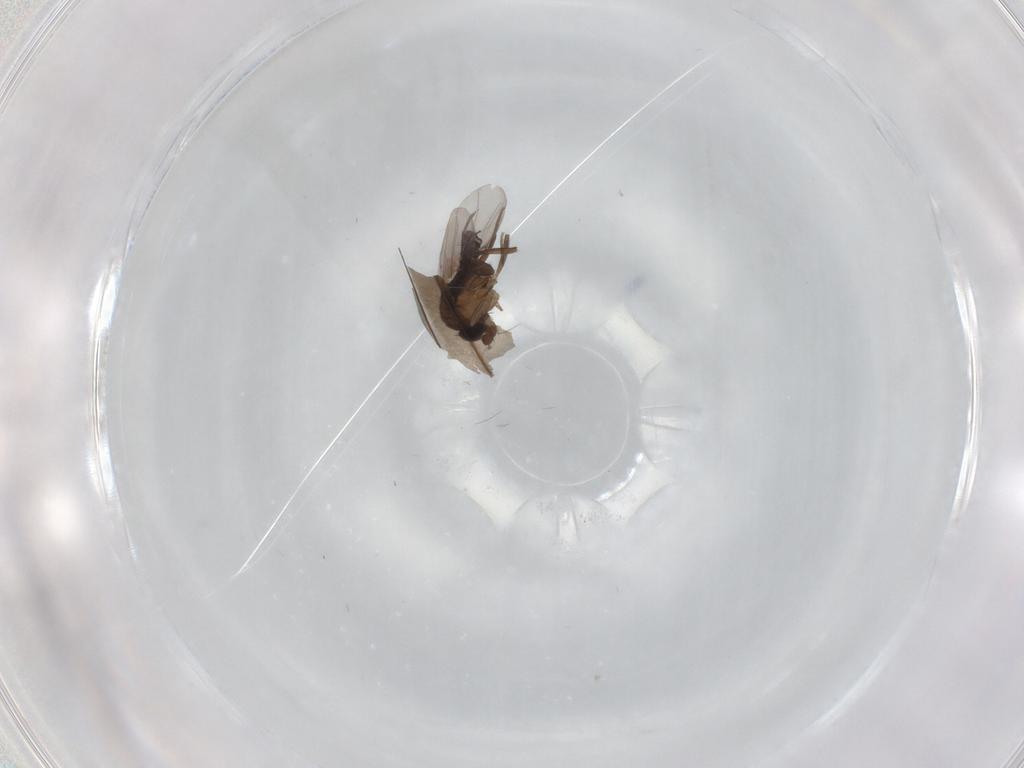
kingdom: Animalia
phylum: Arthropoda
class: Insecta
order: Diptera
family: Phoridae
